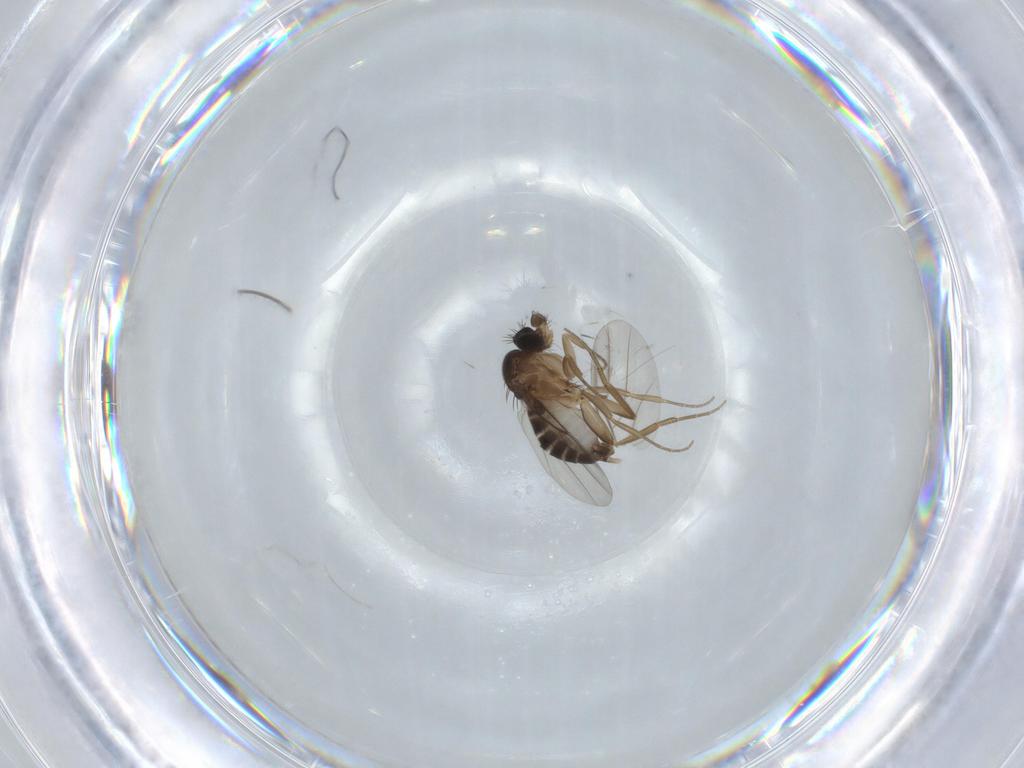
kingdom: Animalia
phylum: Arthropoda
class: Insecta
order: Diptera
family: Phoridae
